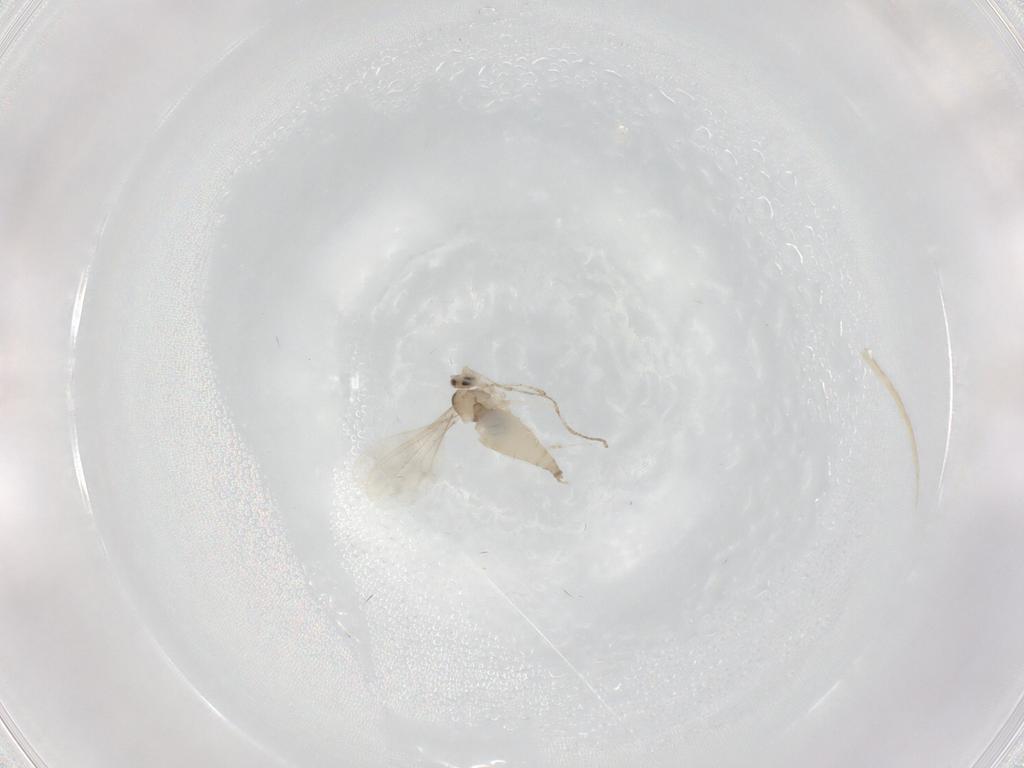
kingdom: Animalia
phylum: Arthropoda
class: Insecta
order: Diptera
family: Cecidomyiidae
